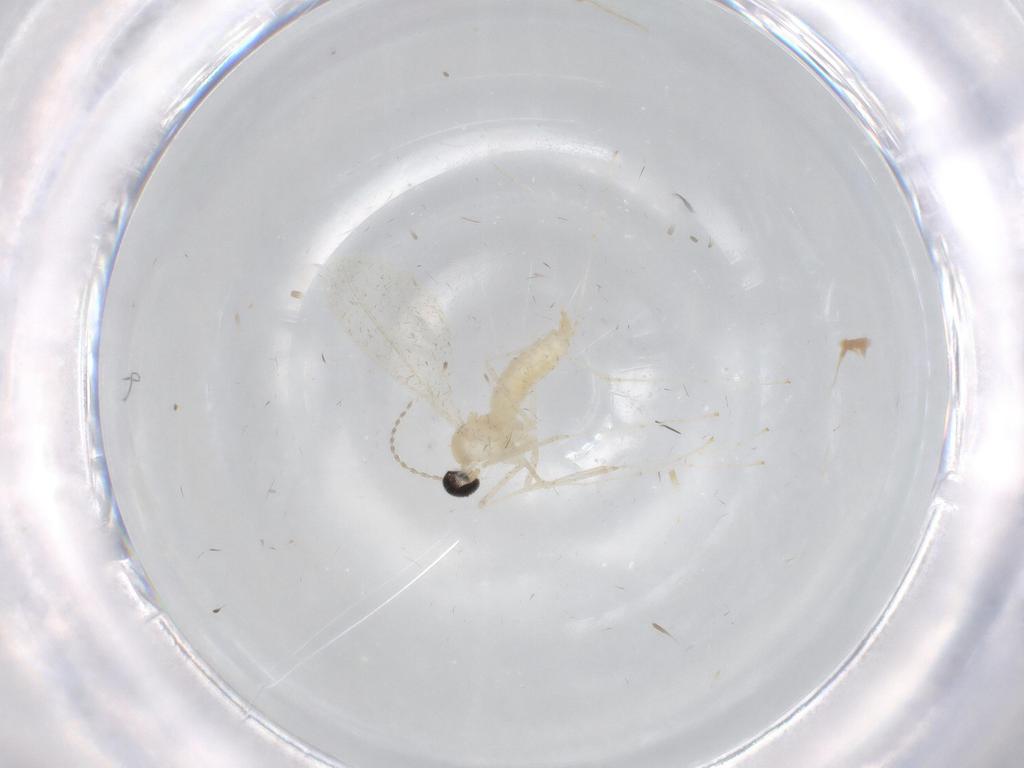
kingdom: Animalia
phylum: Arthropoda
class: Insecta
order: Diptera
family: Cecidomyiidae
